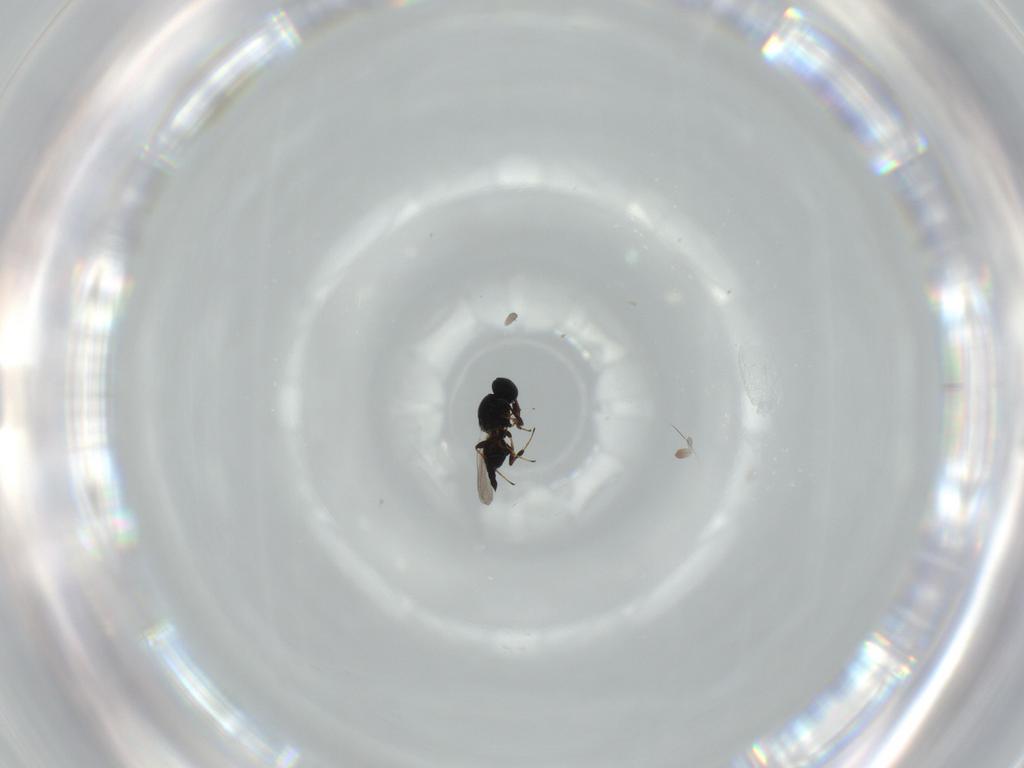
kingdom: Animalia
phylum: Arthropoda
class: Insecta
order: Hymenoptera
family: Platygastridae
